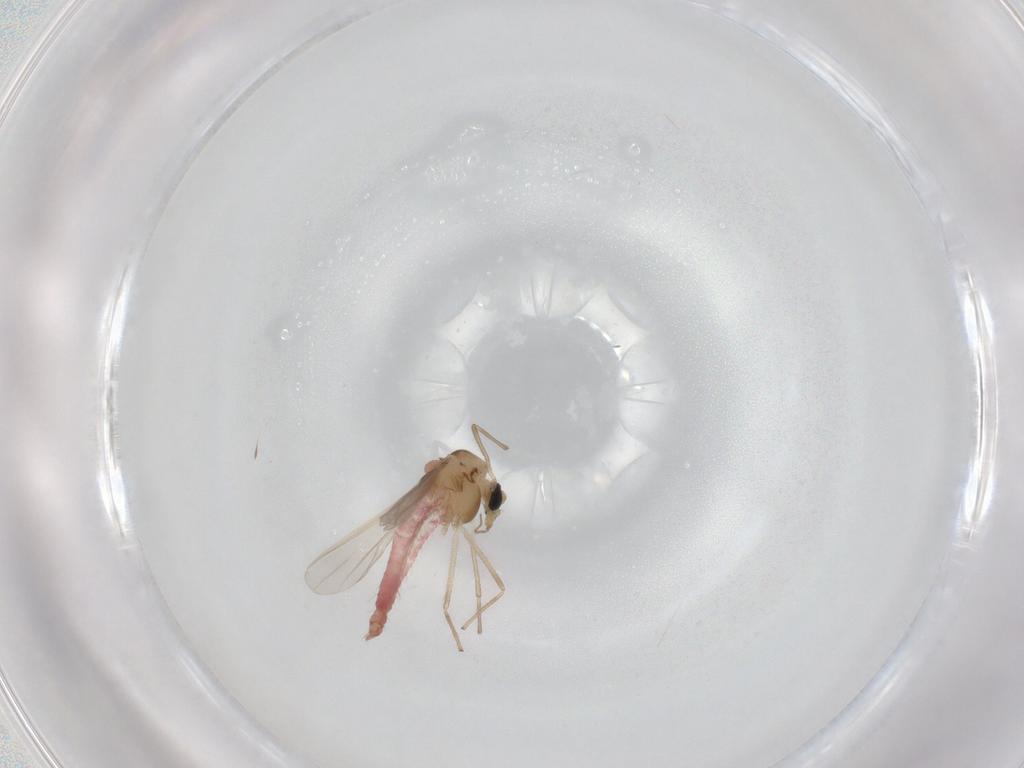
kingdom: Animalia
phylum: Arthropoda
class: Insecta
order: Diptera
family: Chironomidae
